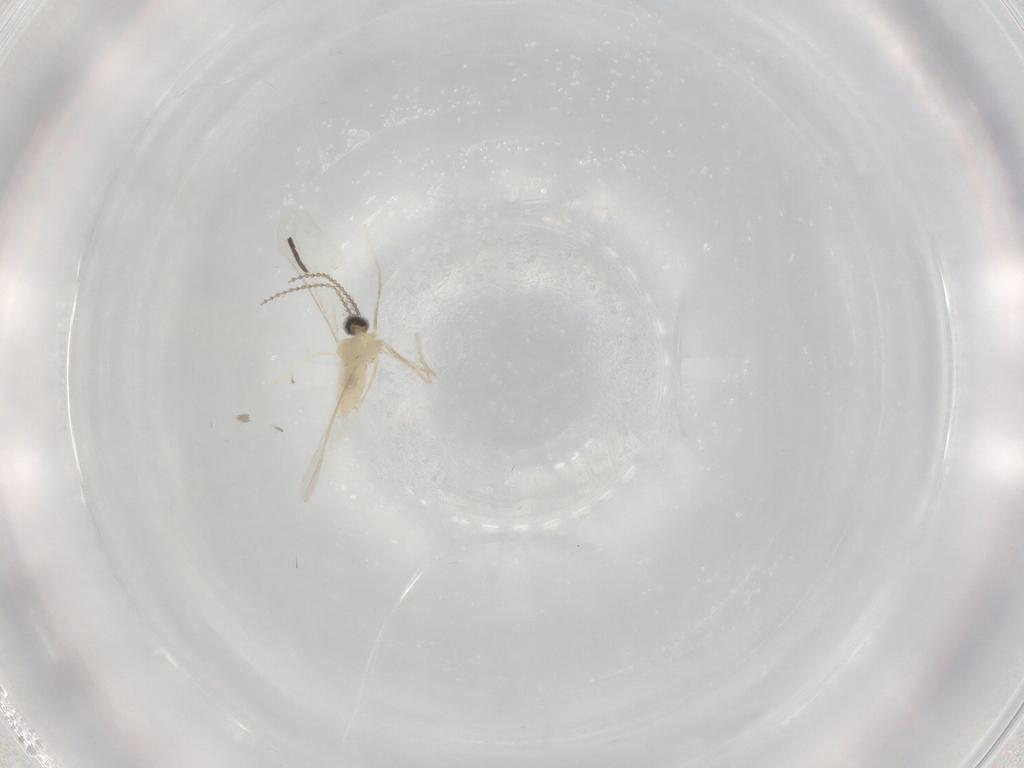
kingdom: Animalia
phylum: Arthropoda
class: Insecta
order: Diptera
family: Cecidomyiidae
